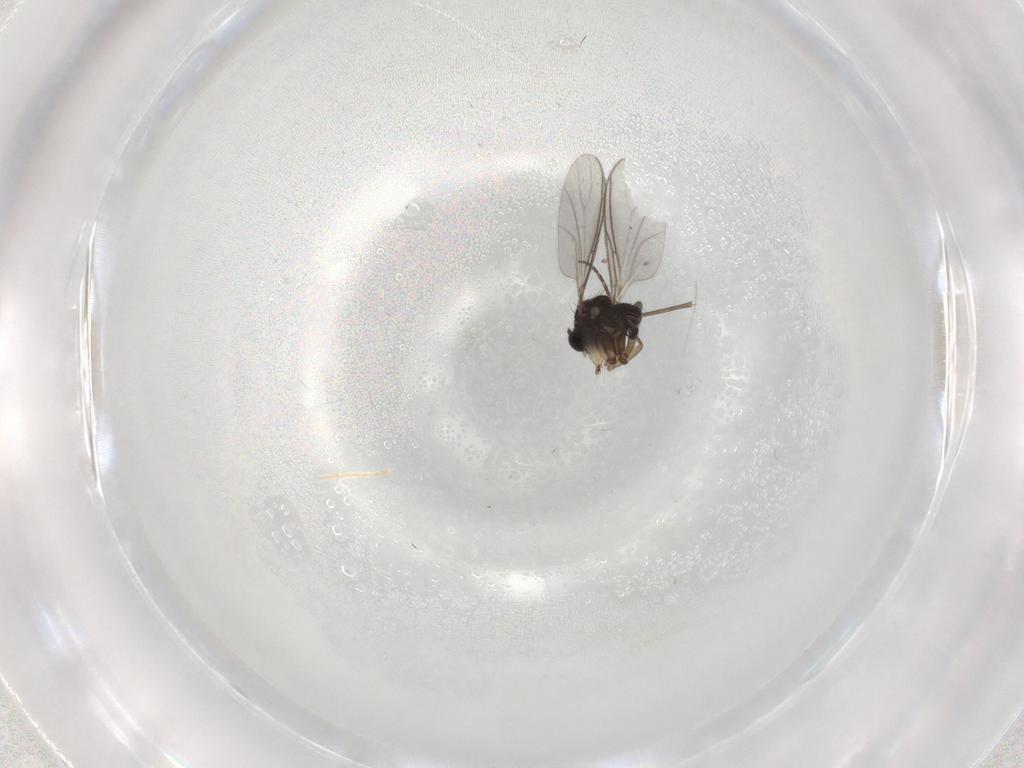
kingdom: Animalia
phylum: Arthropoda
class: Insecta
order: Diptera
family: Sciaridae
